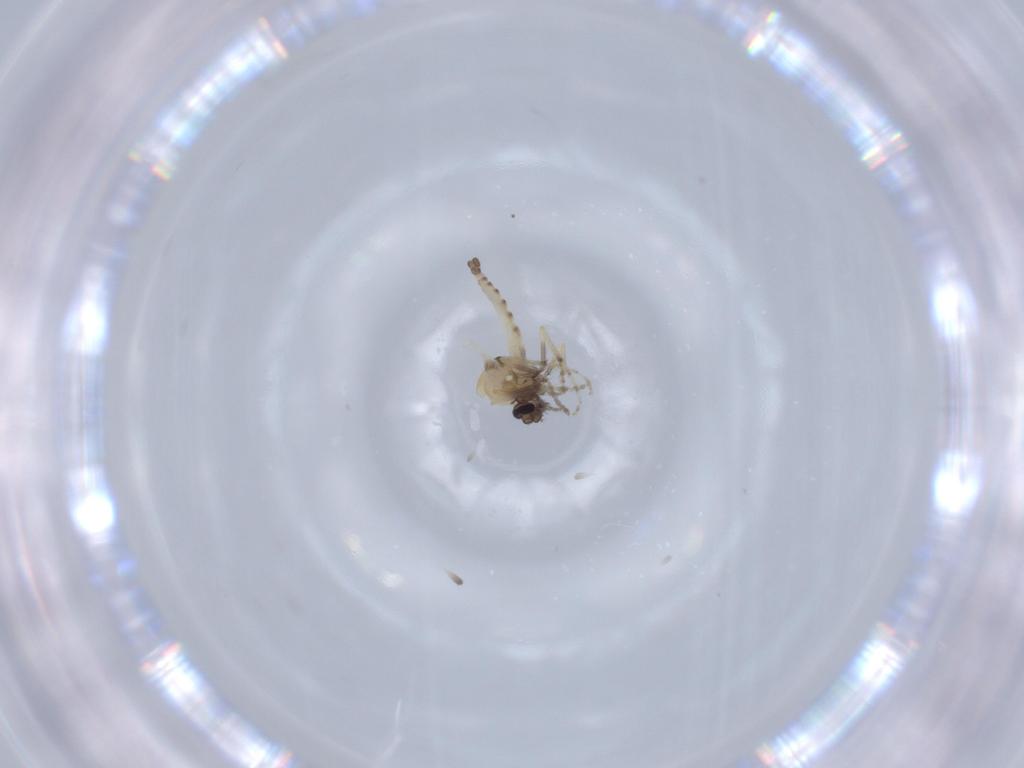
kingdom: Animalia
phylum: Arthropoda
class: Insecta
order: Diptera
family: Ceratopogonidae
